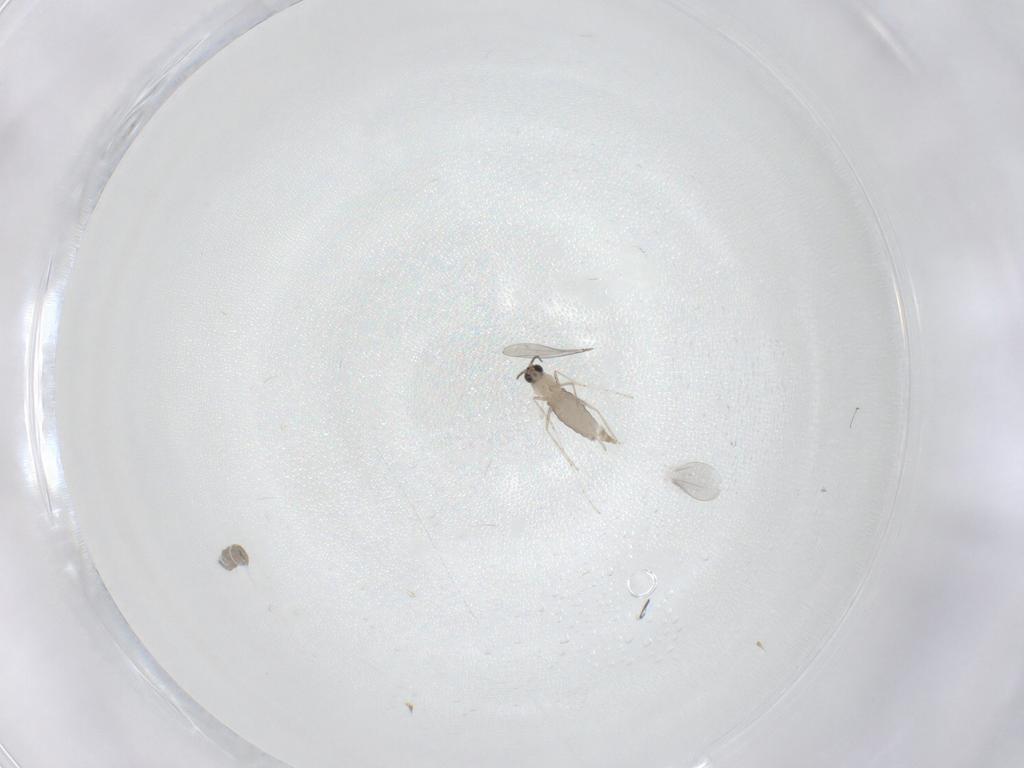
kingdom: Animalia
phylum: Arthropoda
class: Insecta
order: Diptera
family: Cecidomyiidae
